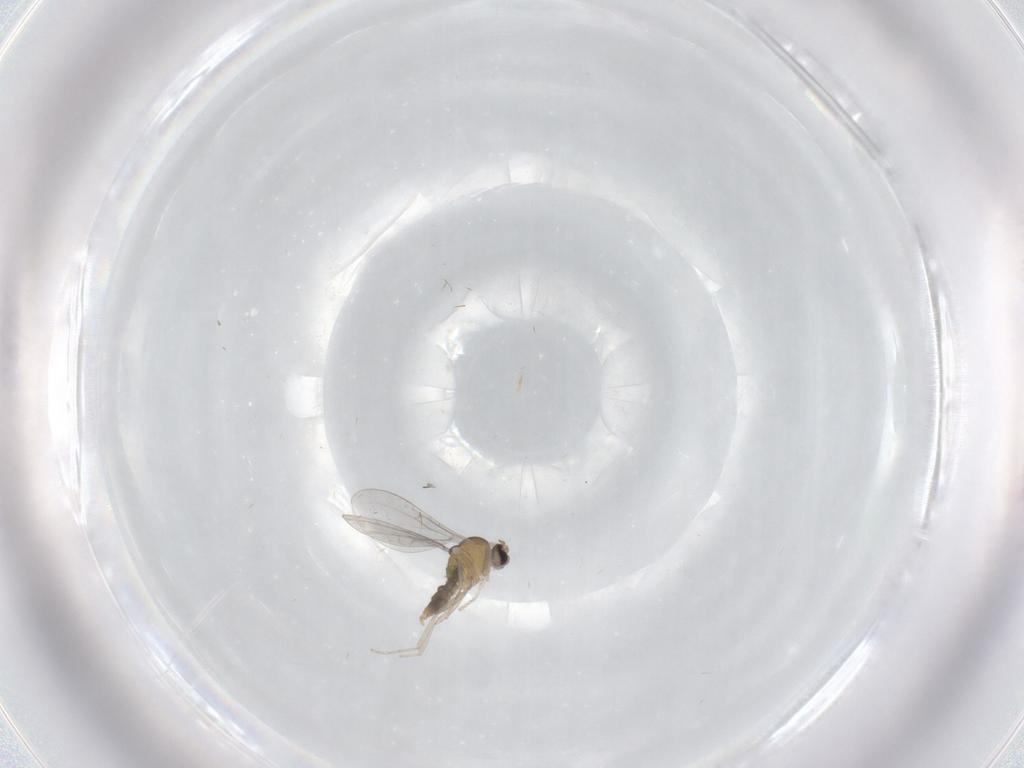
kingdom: Animalia
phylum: Arthropoda
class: Insecta
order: Diptera
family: Cecidomyiidae
